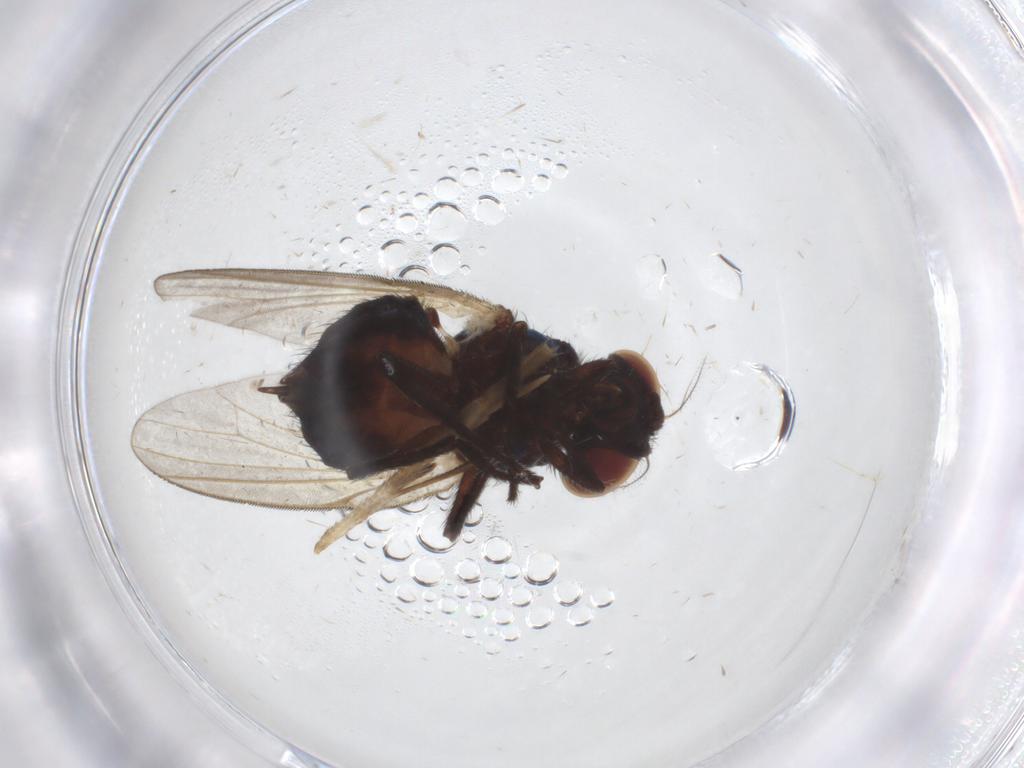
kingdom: Animalia
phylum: Arthropoda
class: Insecta
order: Diptera
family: Lonchaeidae
